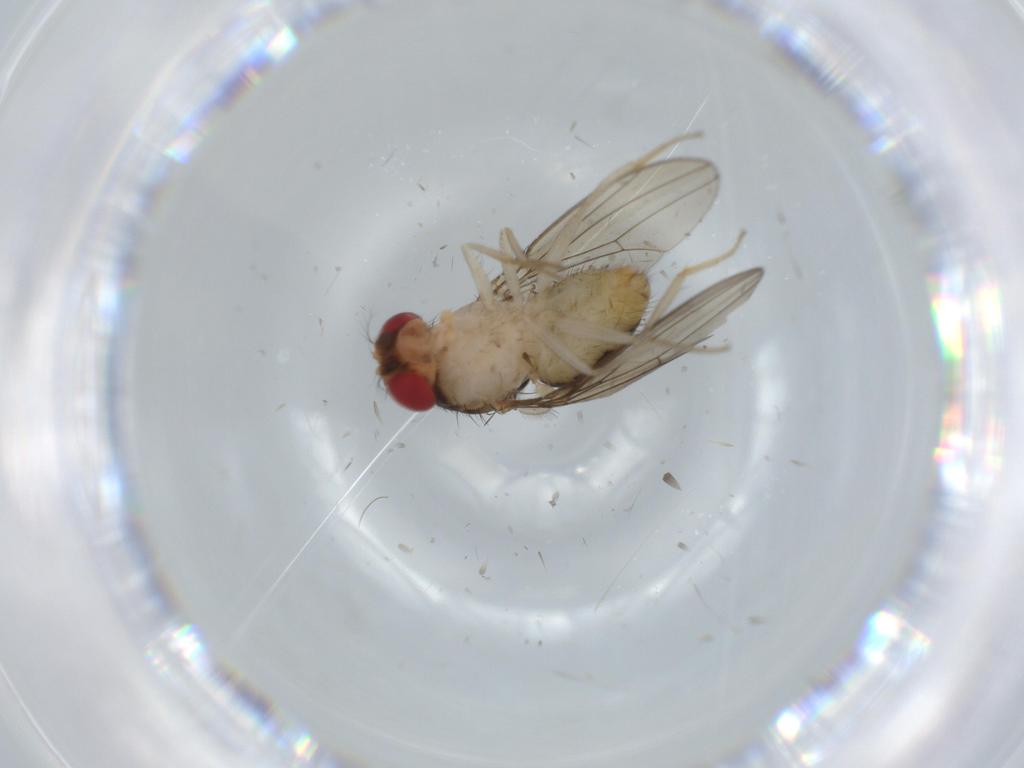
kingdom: Animalia
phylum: Arthropoda
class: Insecta
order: Diptera
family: Drosophilidae
